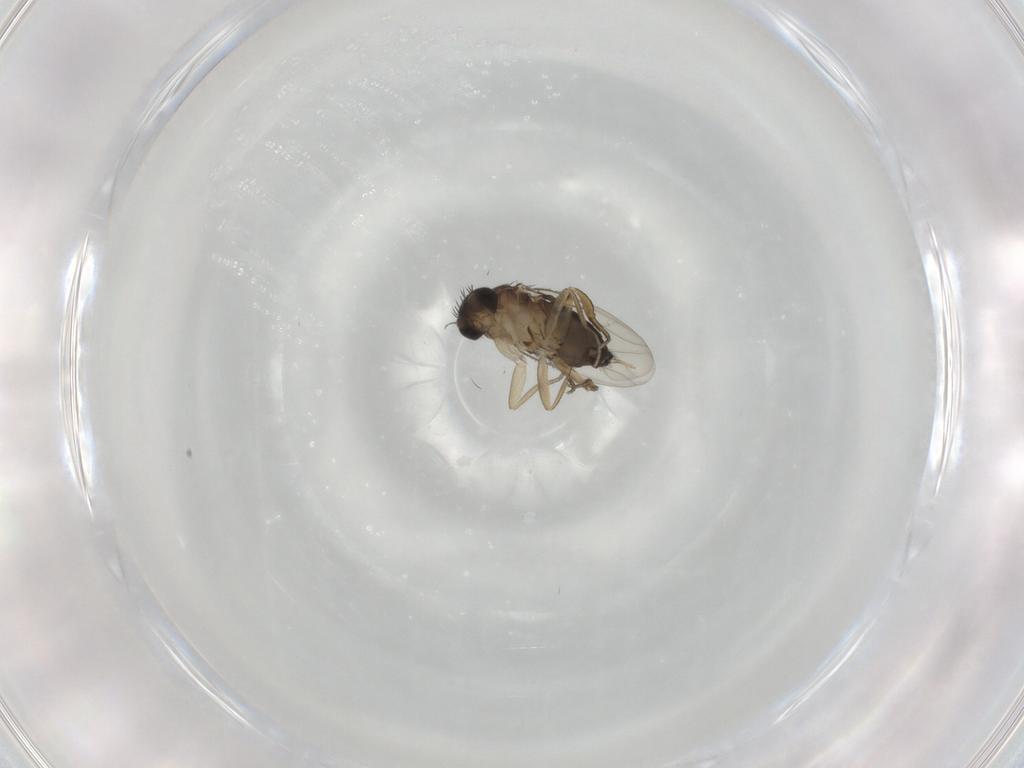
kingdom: Animalia
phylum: Arthropoda
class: Insecta
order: Diptera
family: Phoridae
